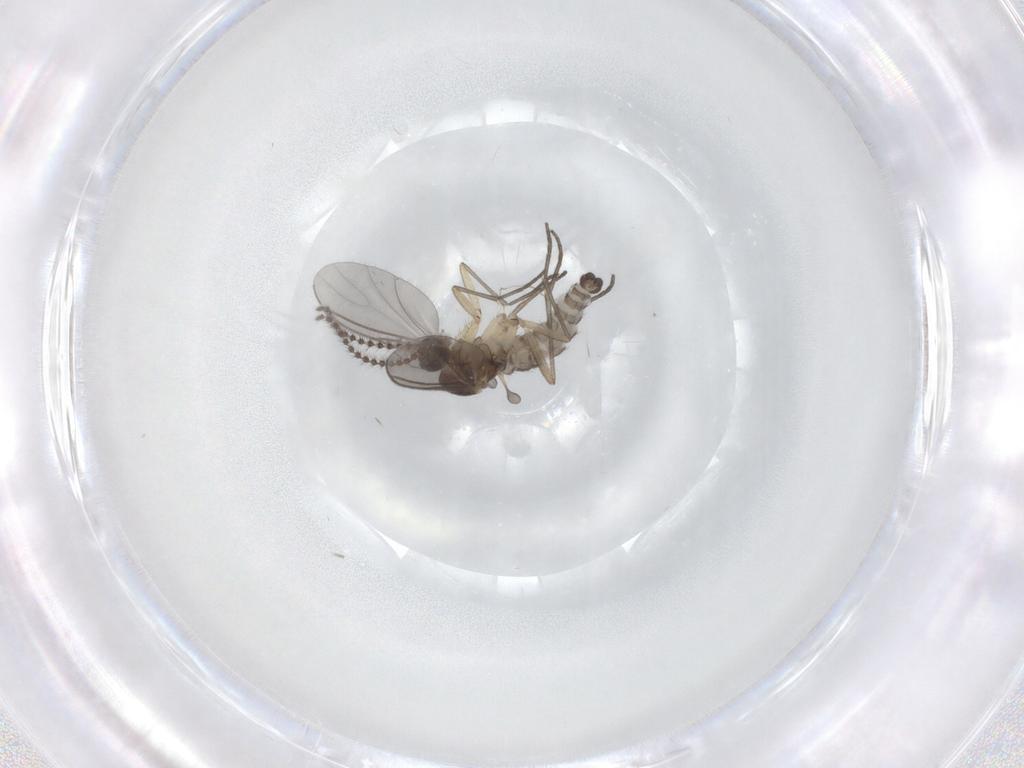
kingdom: Animalia
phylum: Arthropoda
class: Insecta
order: Diptera
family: Sciaridae
